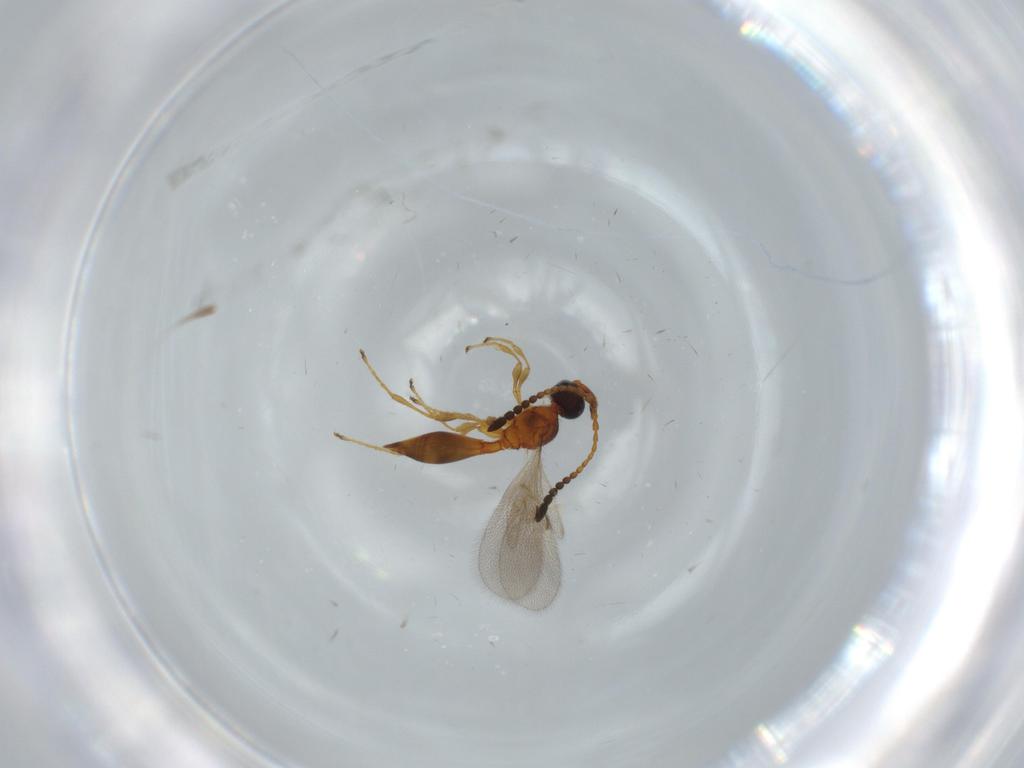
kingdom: Animalia
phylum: Arthropoda
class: Insecta
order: Hymenoptera
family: Diapriidae
